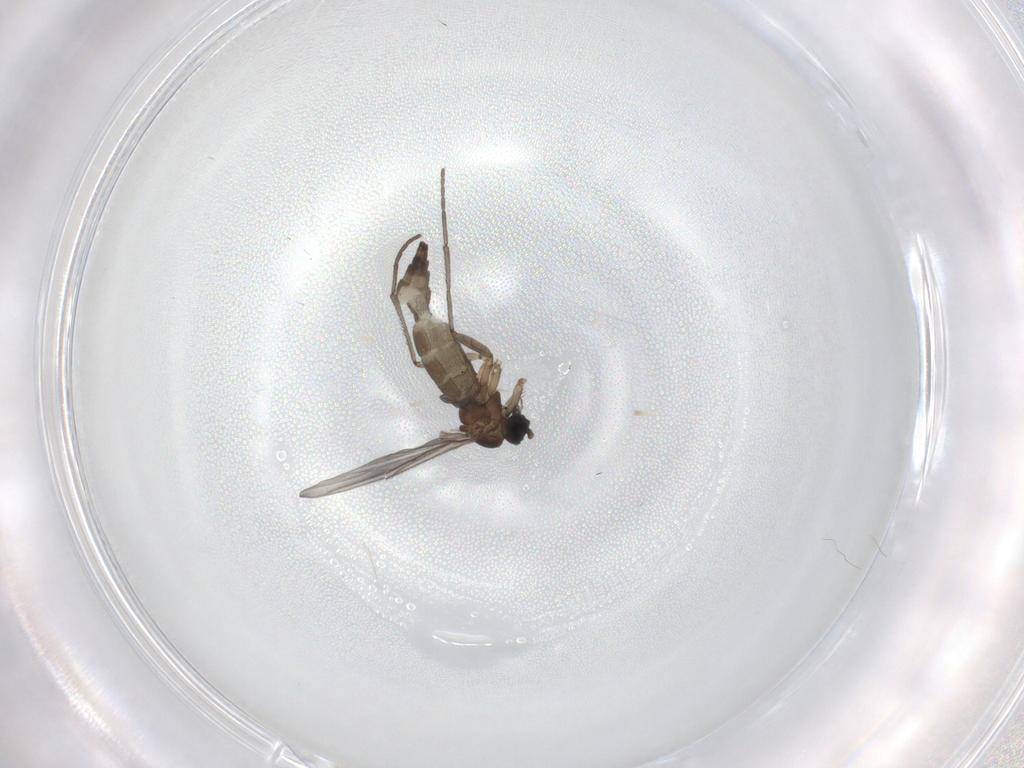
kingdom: Animalia
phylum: Arthropoda
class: Insecta
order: Diptera
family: Sciaridae
